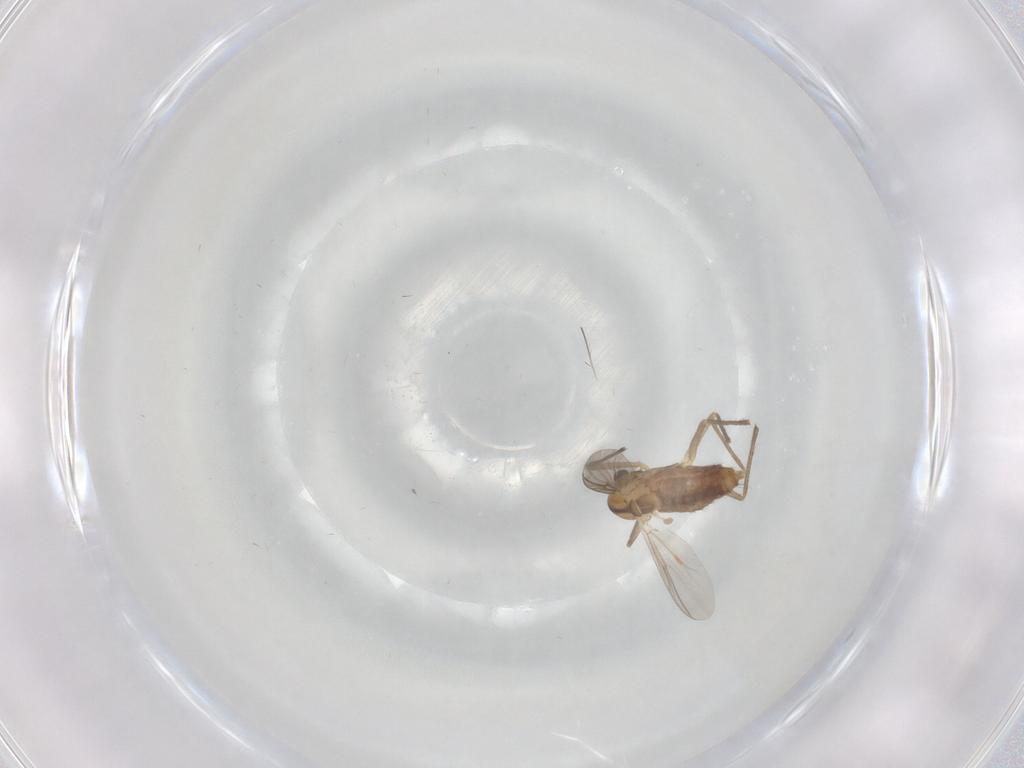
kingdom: Animalia
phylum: Arthropoda
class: Insecta
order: Diptera
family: Chironomidae
